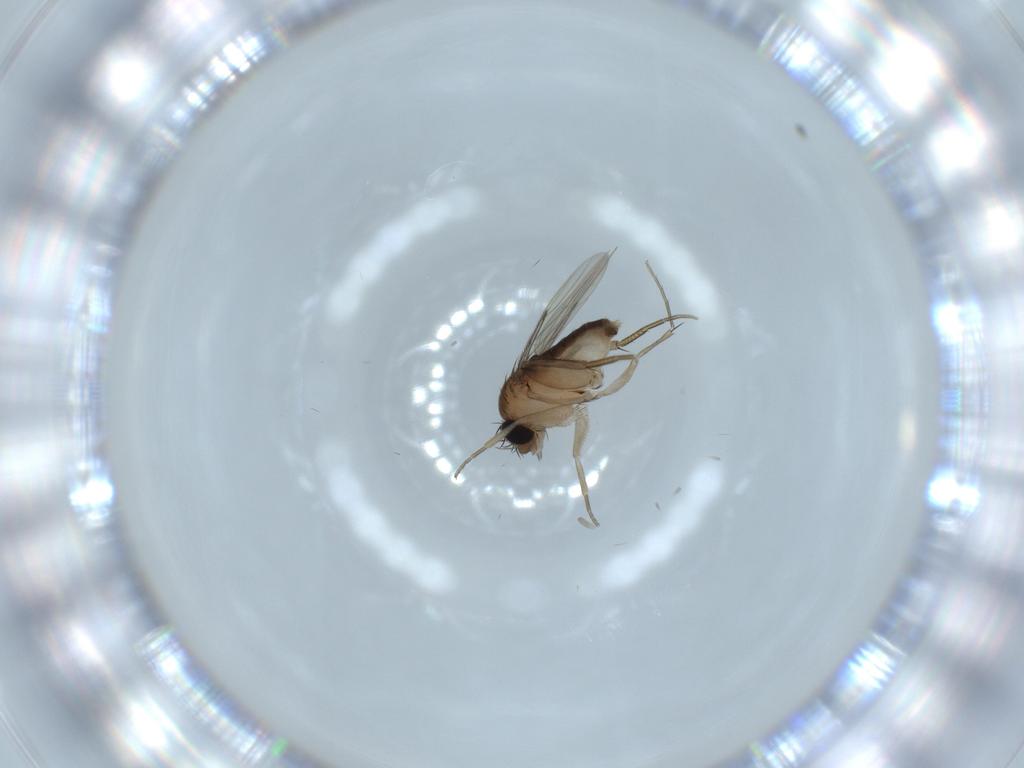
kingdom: Animalia
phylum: Arthropoda
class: Insecta
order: Diptera
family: Phoridae
